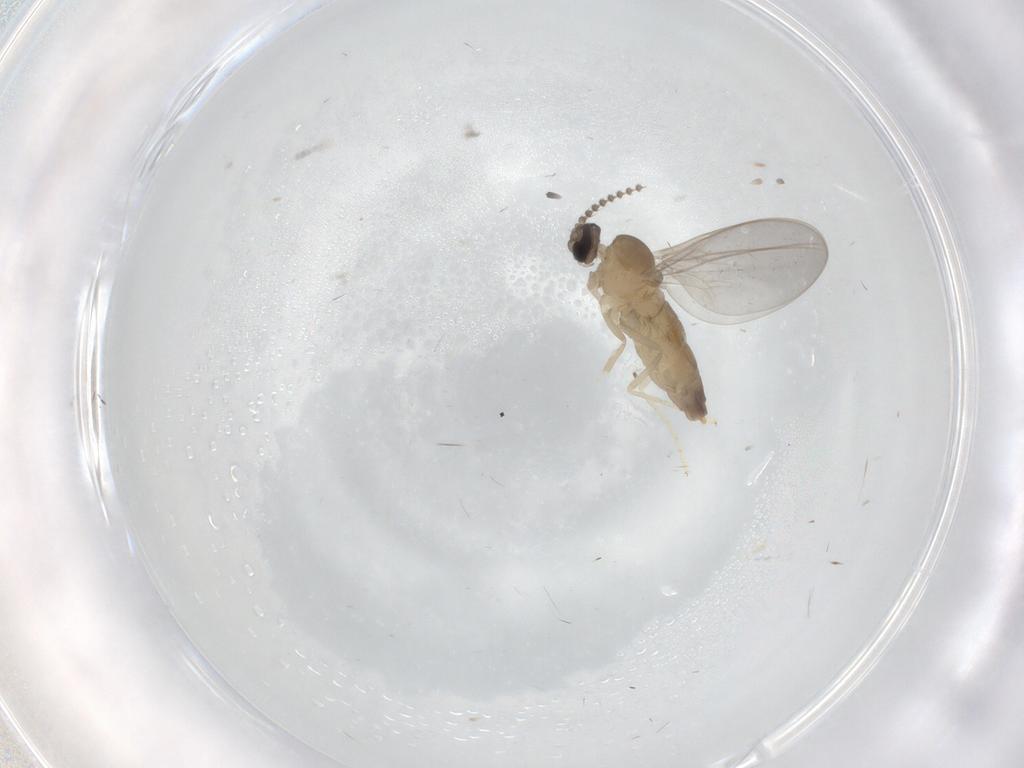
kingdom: Animalia
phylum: Arthropoda
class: Insecta
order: Diptera
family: Cecidomyiidae
